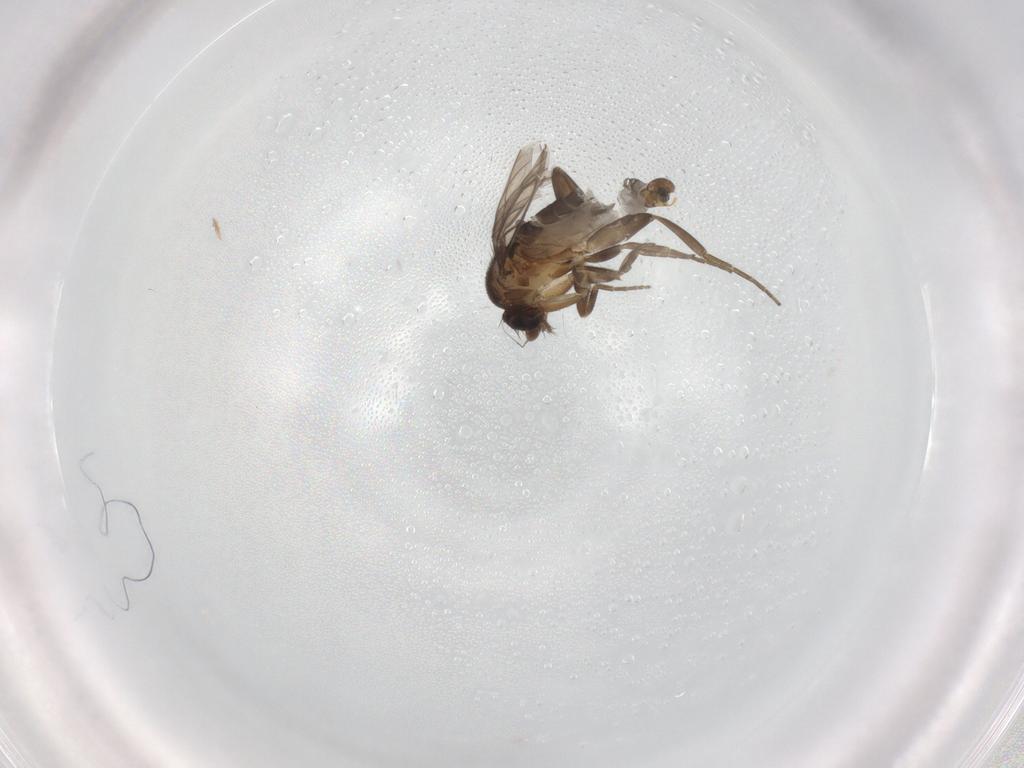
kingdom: Animalia
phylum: Arthropoda
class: Insecta
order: Diptera
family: Phoridae
